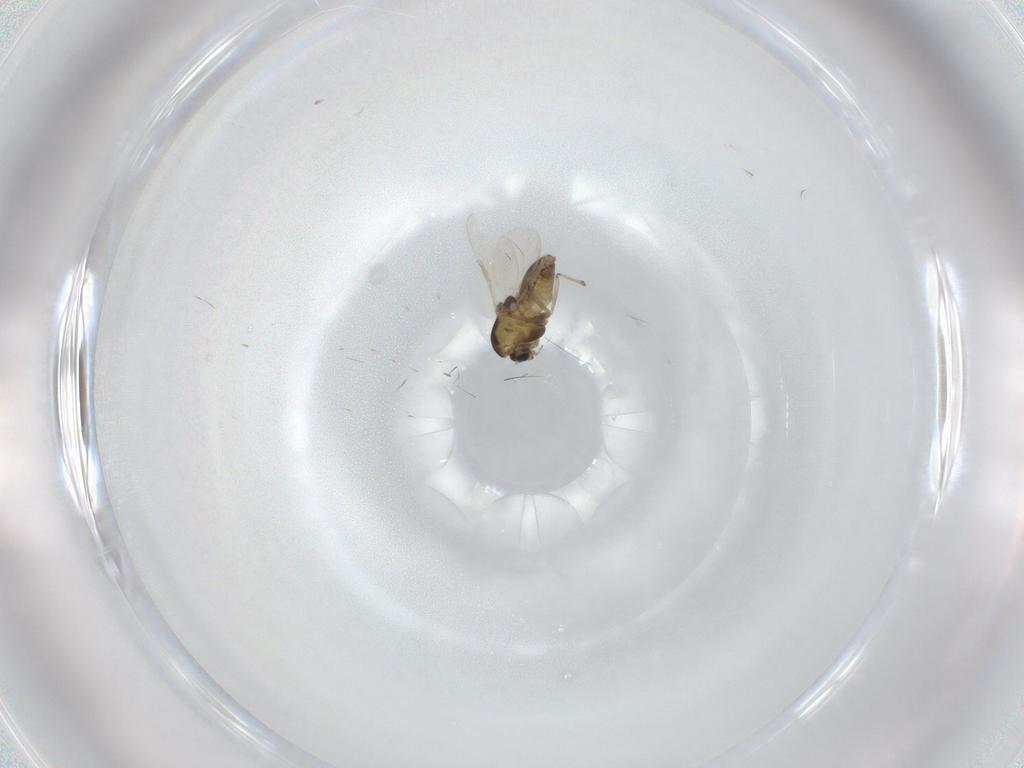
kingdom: Animalia
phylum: Arthropoda
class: Insecta
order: Diptera
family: Chironomidae
